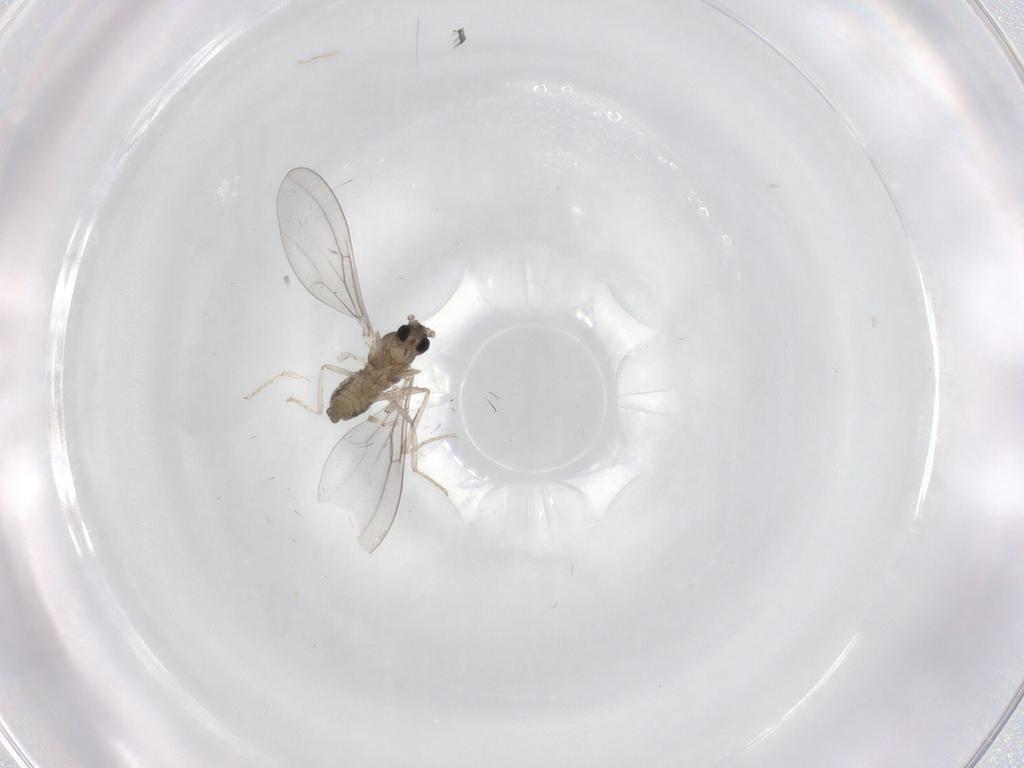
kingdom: Animalia
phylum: Arthropoda
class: Insecta
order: Diptera
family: Cecidomyiidae
